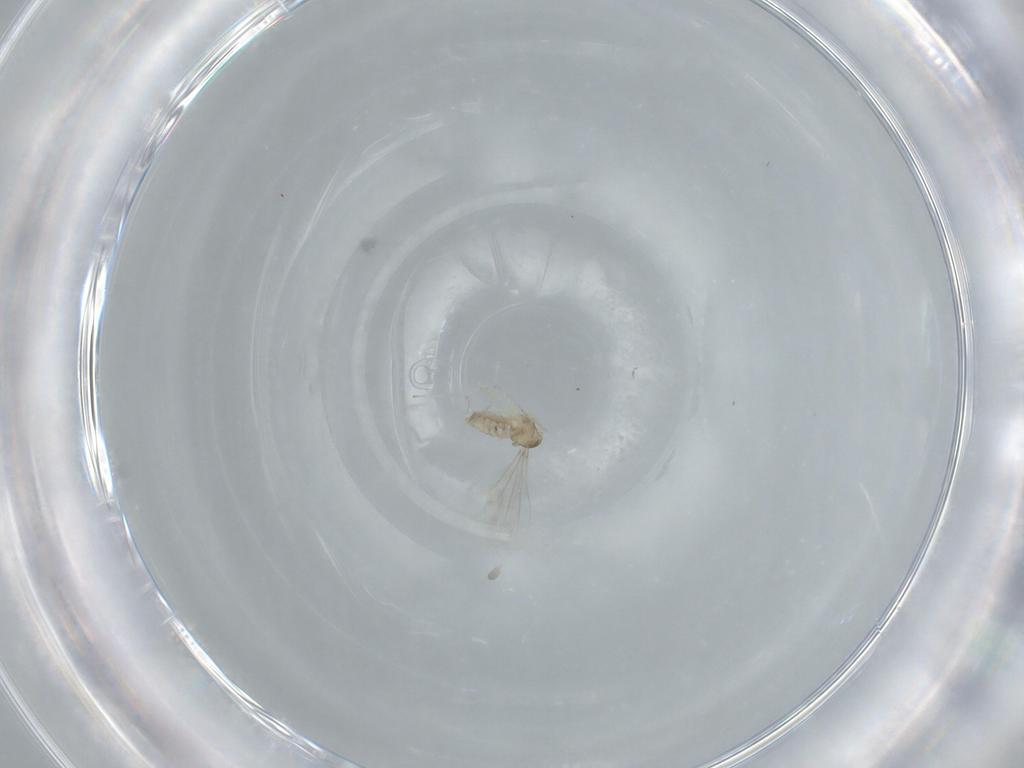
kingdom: Animalia
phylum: Arthropoda
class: Insecta
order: Diptera
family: Cecidomyiidae
